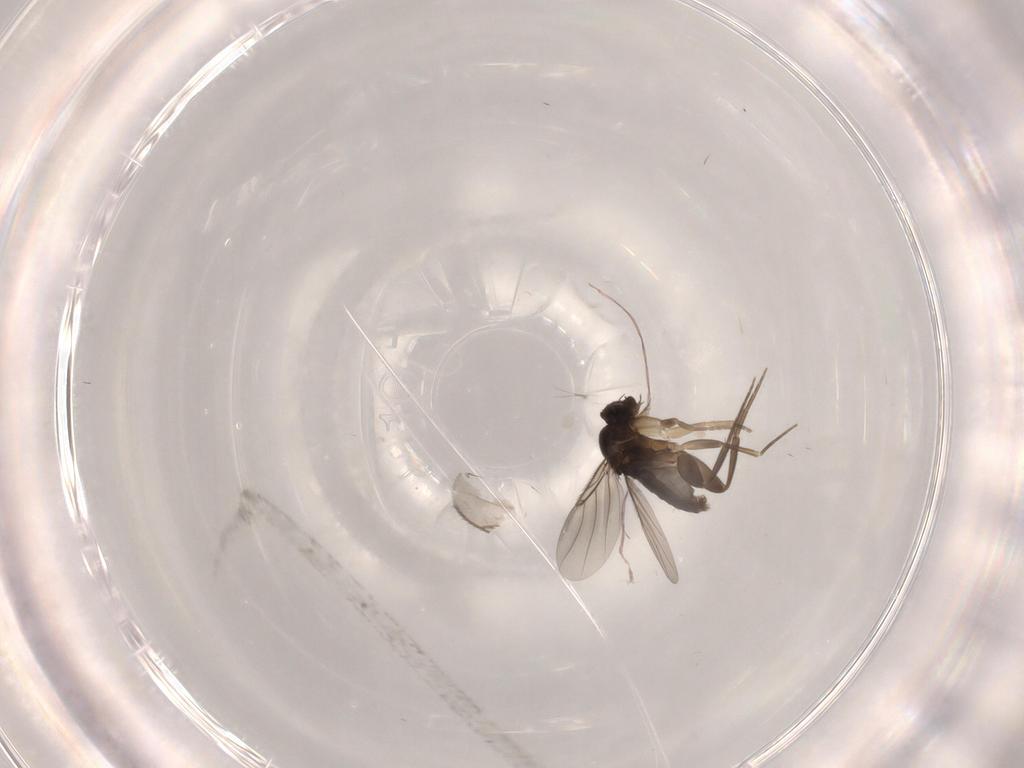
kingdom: Animalia
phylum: Arthropoda
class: Insecta
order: Diptera
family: Phoridae
